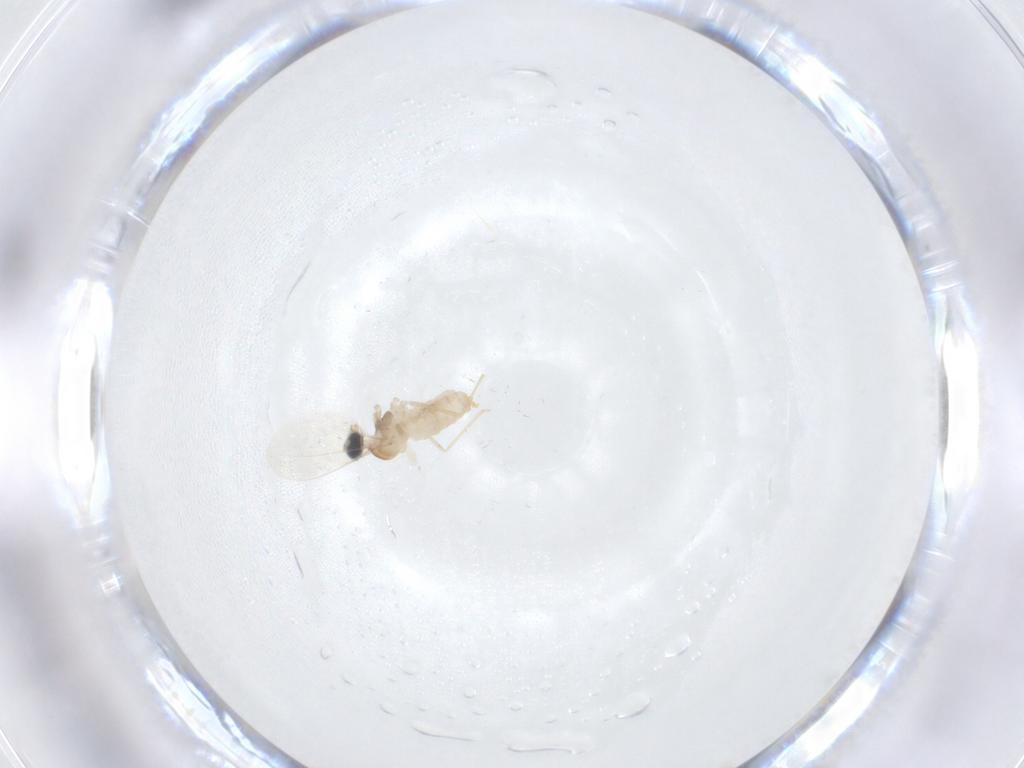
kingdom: Animalia
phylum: Arthropoda
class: Insecta
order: Diptera
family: Cecidomyiidae
